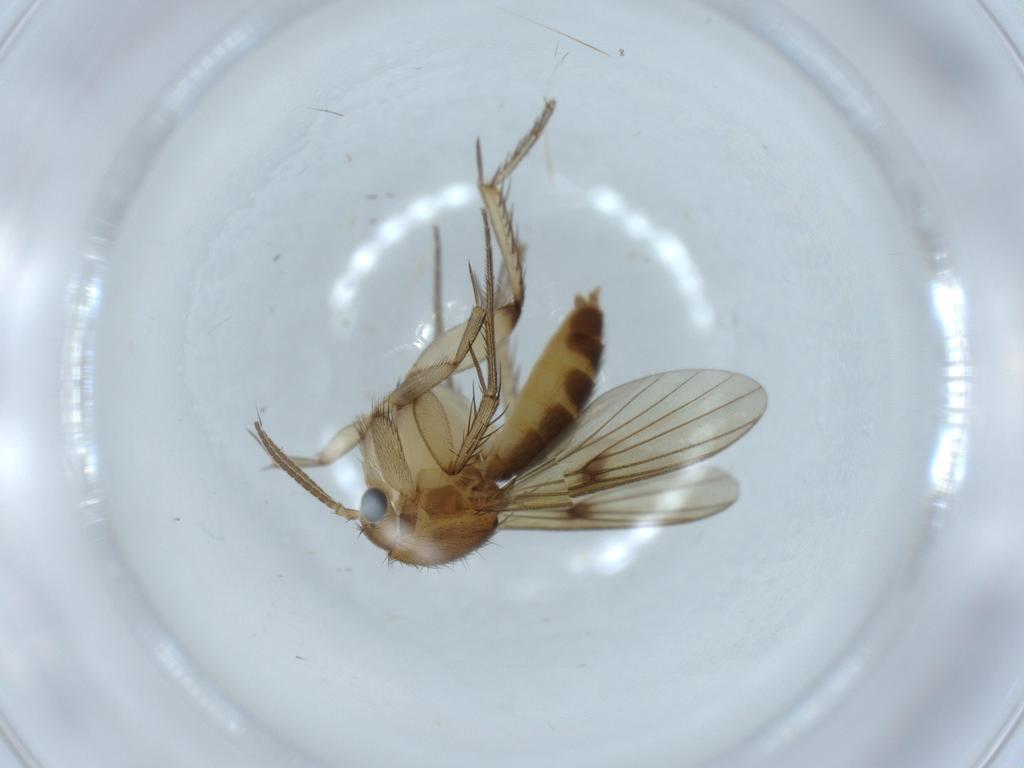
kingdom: Animalia
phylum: Arthropoda
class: Insecta
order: Diptera
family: Mycetophilidae
